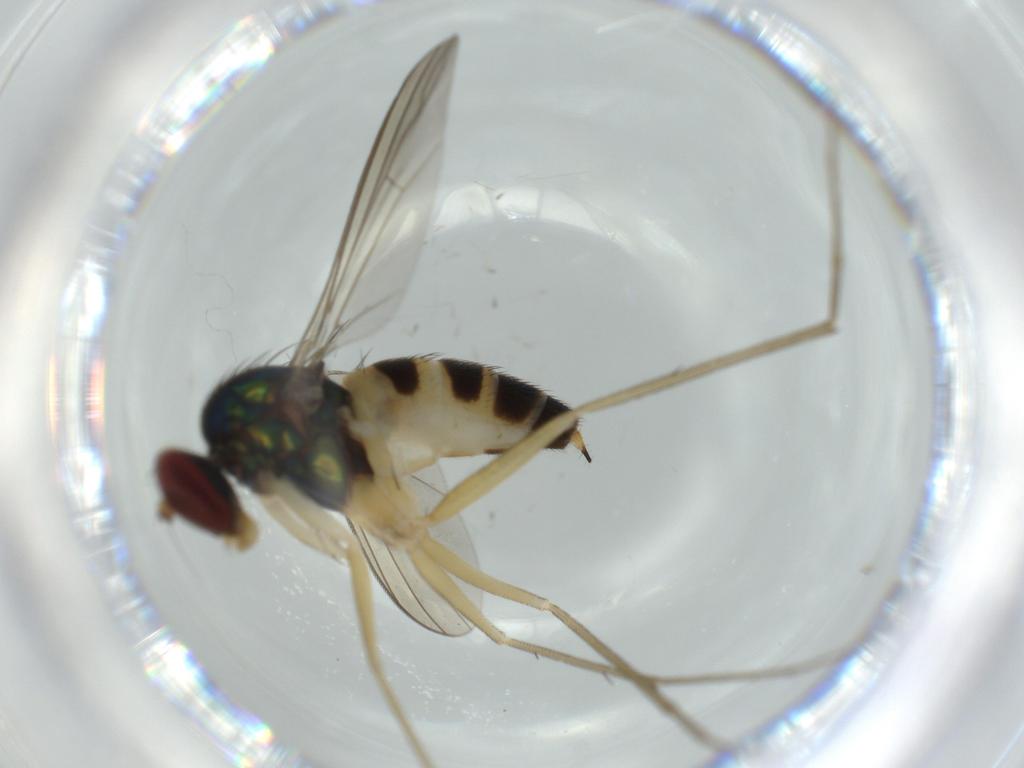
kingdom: Animalia
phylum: Arthropoda
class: Insecta
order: Diptera
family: Dolichopodidae
